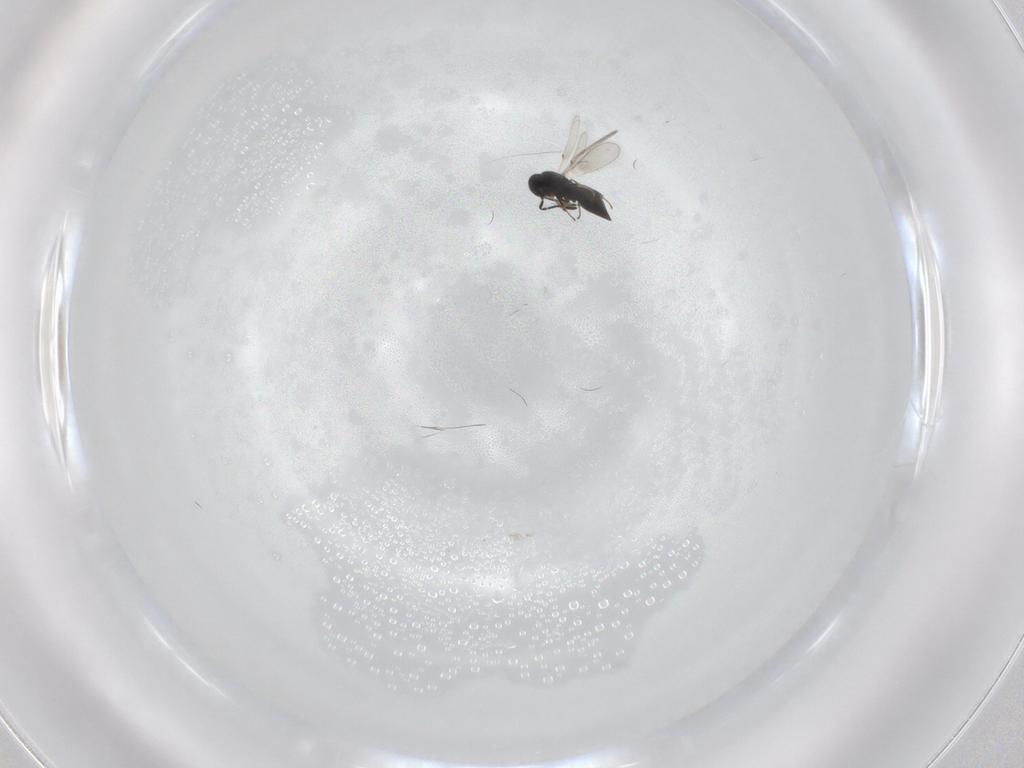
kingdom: Animalia
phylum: Arthropoda
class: Insecta
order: Hymenoptera
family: Scelionidae
